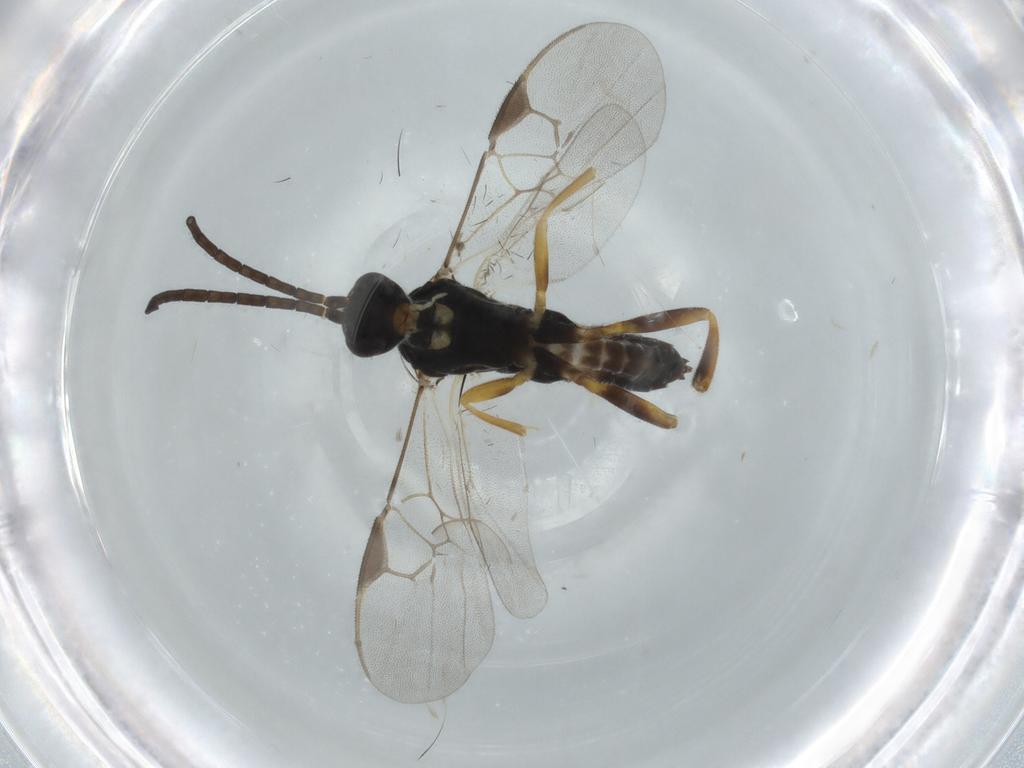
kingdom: Animalia
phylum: Arthropoda
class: Insecta
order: Hymenoptera
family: Braconidae
